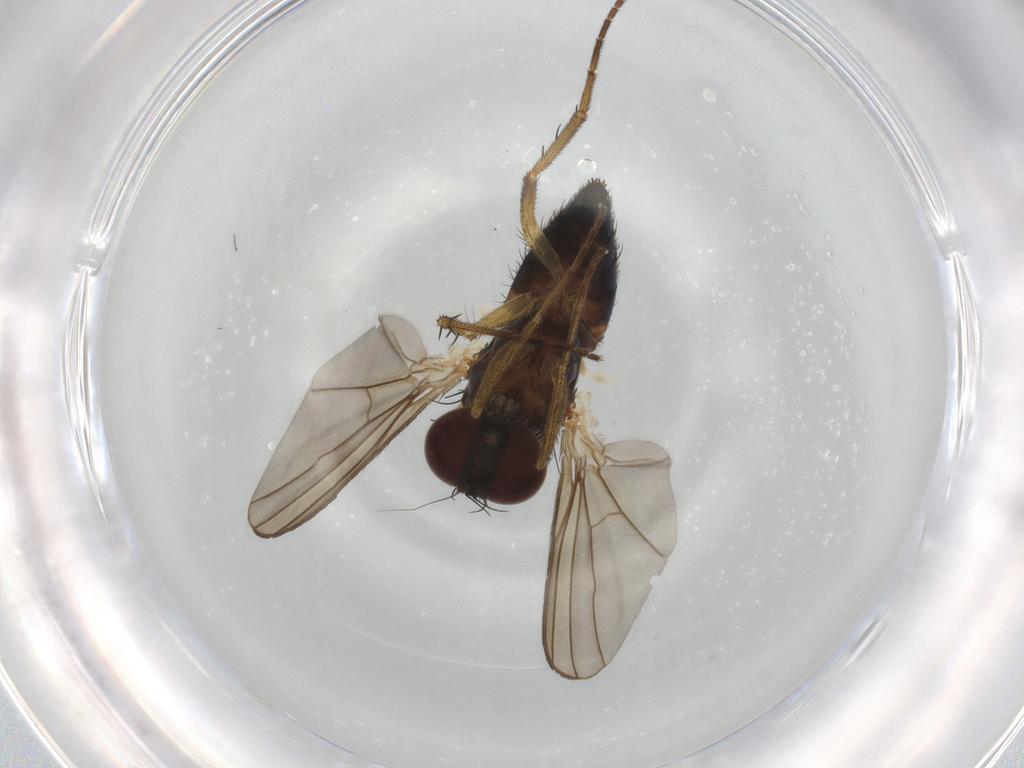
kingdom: Animalia
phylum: Arthropoda
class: Insecta
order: Diptera
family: Dolichopodidae
